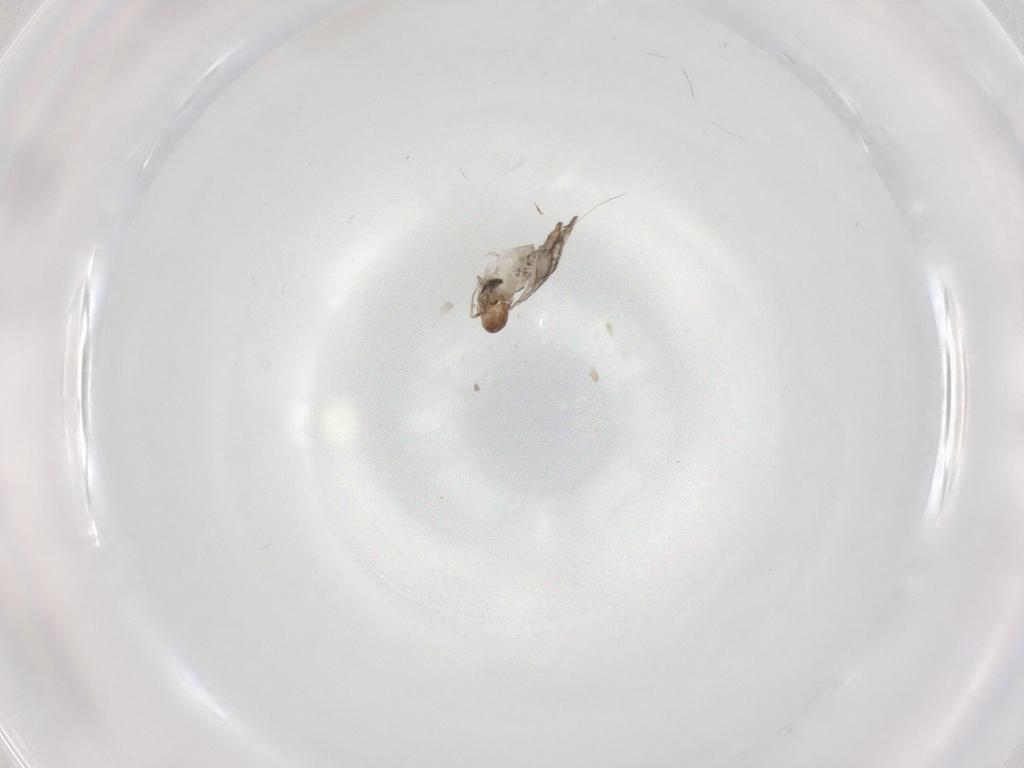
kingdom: Animalia
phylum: Arthropoda
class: Insecta
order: Diptera
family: Cecidomyiidae
